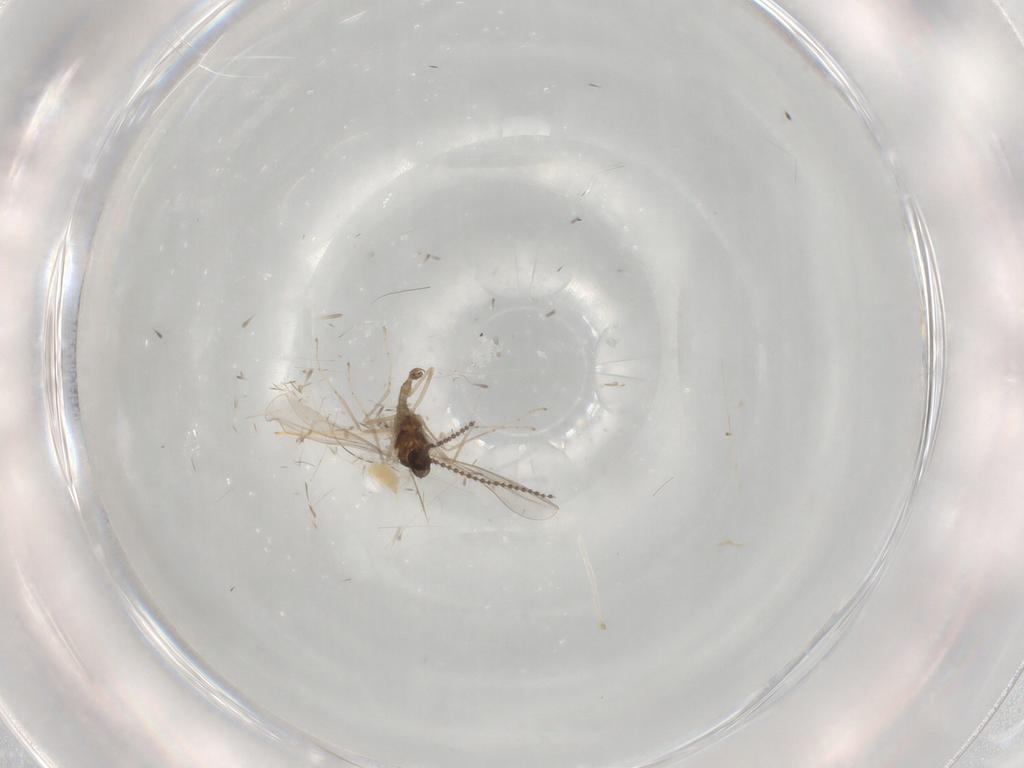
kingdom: Animalia
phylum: Arthropoda
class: Insecta
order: Diptera
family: Cecidomyiidae
